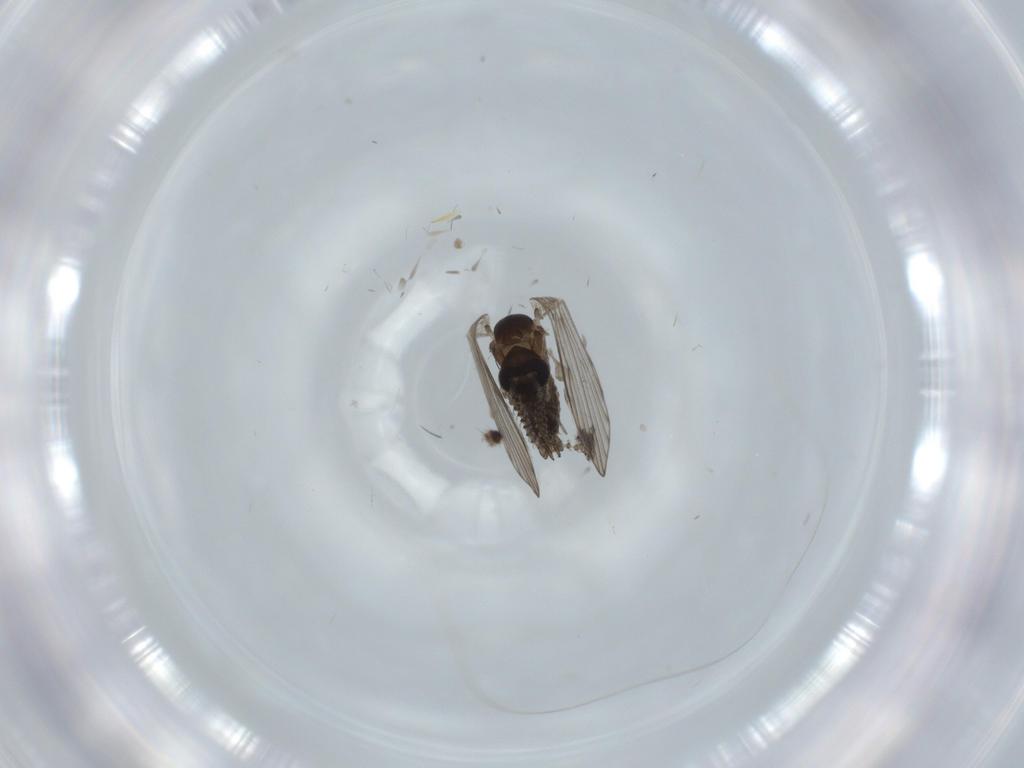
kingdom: Animalia
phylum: Arthropoda
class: Insecta
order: Diptera
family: Psychodidae
